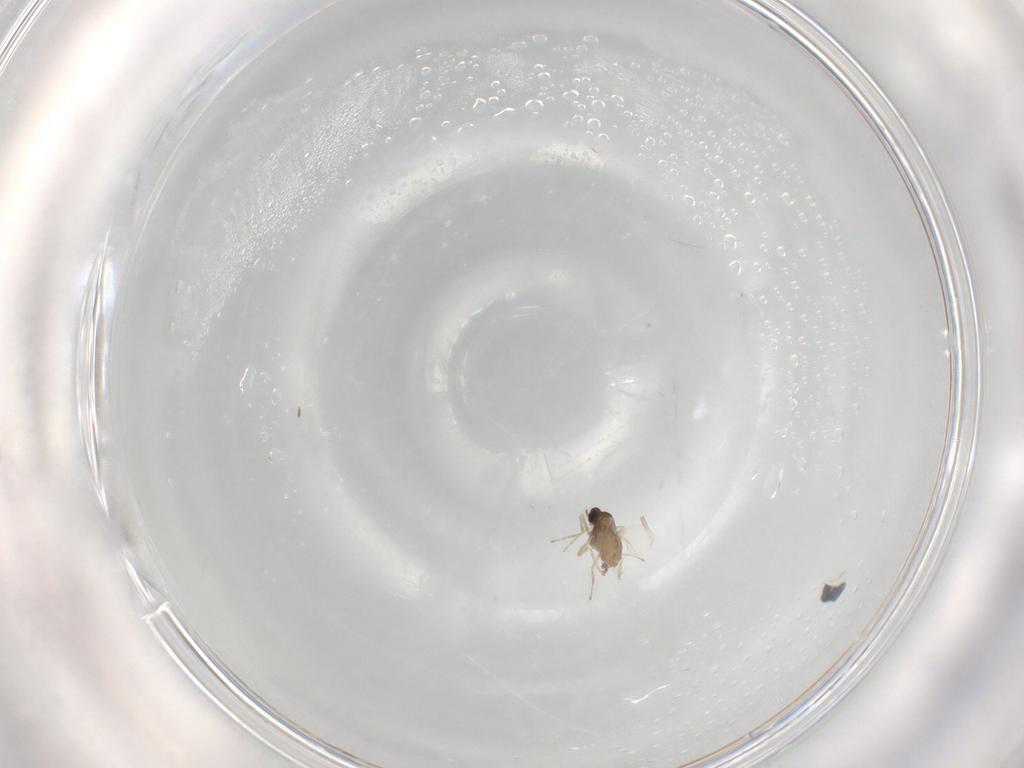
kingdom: Animalia
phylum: Arthropoda
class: Insecta
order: Diptera
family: Cecidomyiidae
